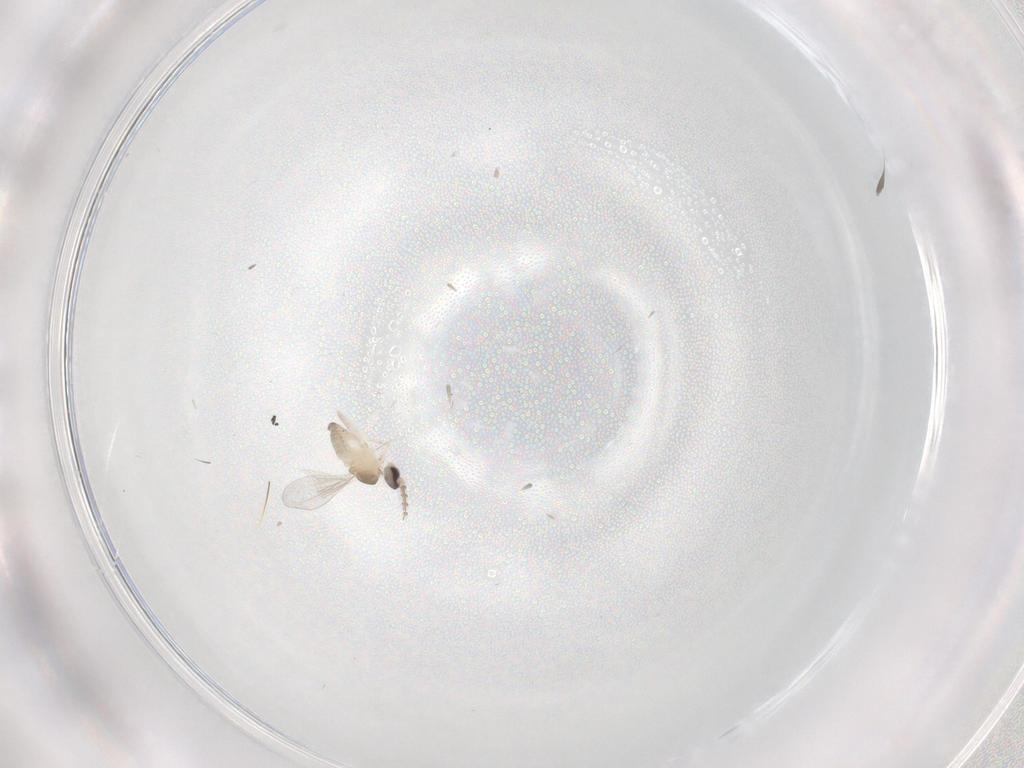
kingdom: Animalia
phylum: Arthropoda
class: Insecta
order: Diptera
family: Cecidomyiidae
